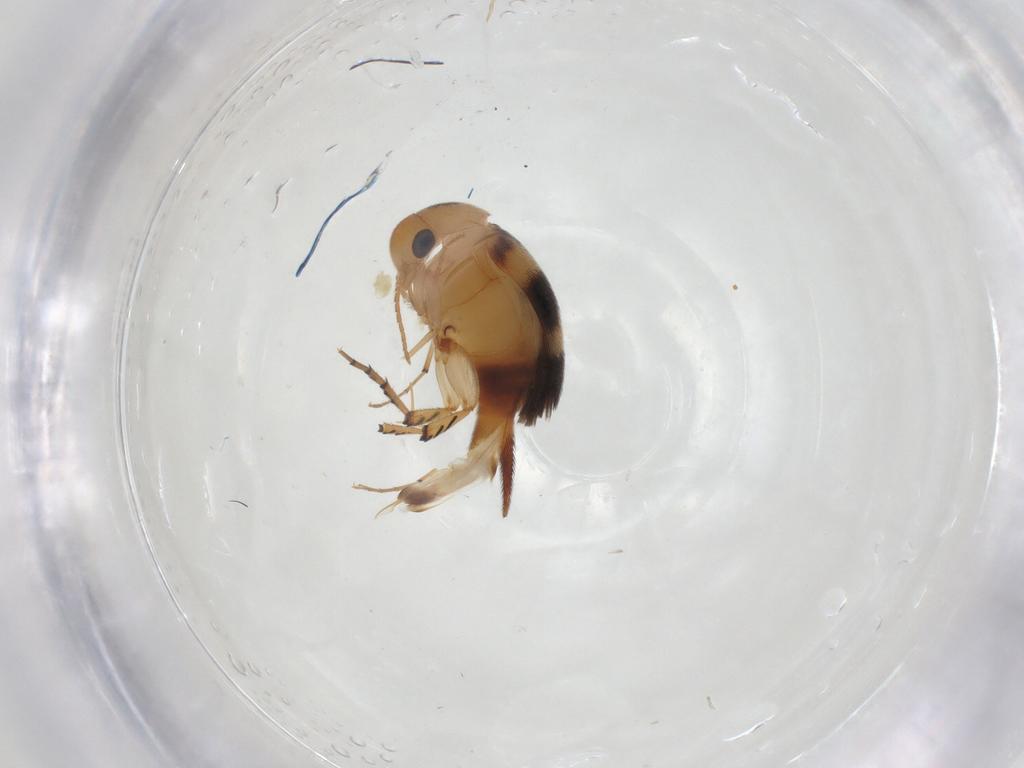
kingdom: Animalia
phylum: Arthropoda
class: Insecta
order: Coleoptera
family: Mordellidae
